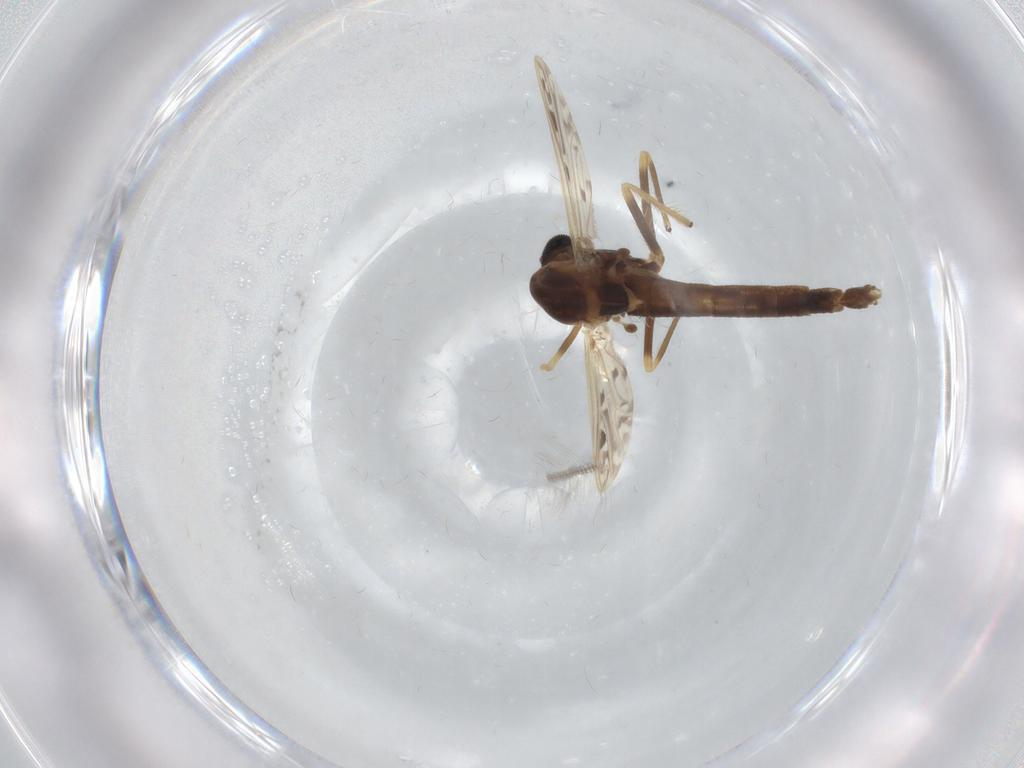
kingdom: Animalia
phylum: Arthropoda
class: Insecta
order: Diptera
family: Chironomidae
